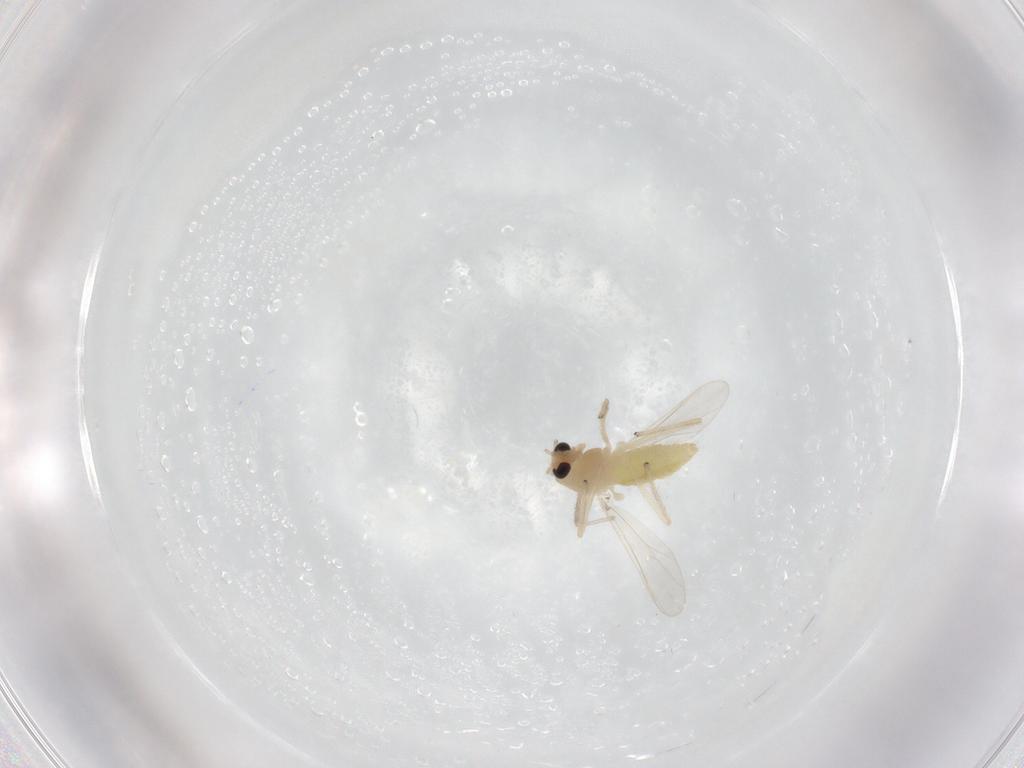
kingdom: Animalia
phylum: Arthropoda
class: Insecta
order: Diptera
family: Chironomidae
